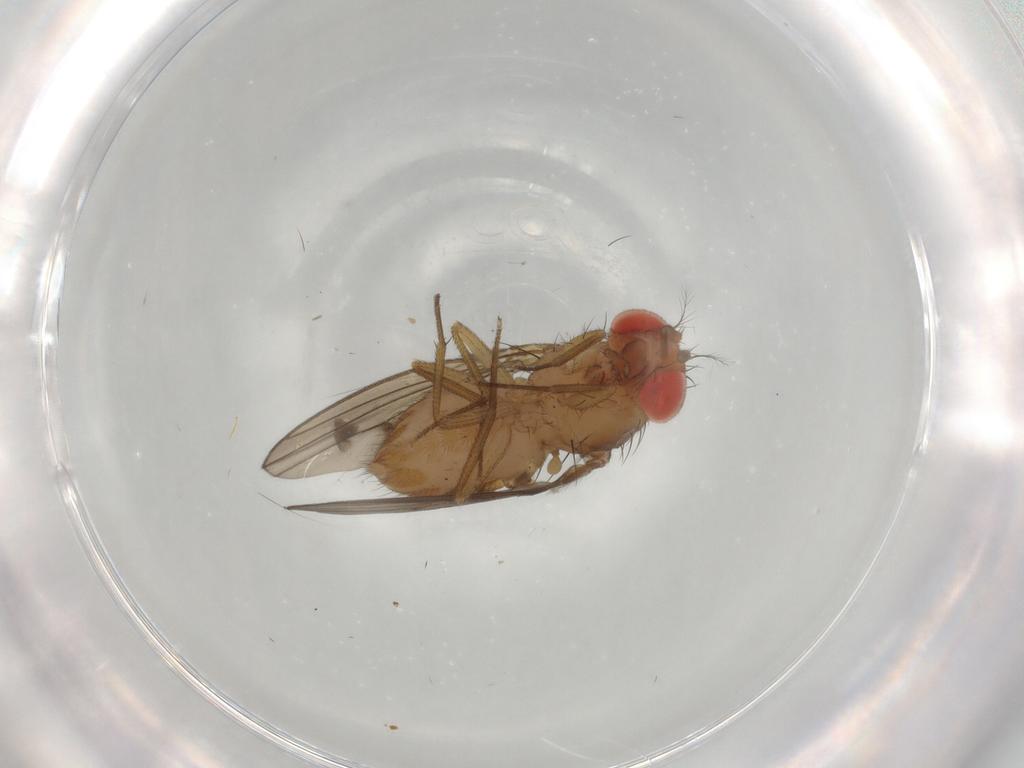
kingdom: Animalia
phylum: Arthropoda
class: Insecta
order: Diptera
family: Drosophilidae
